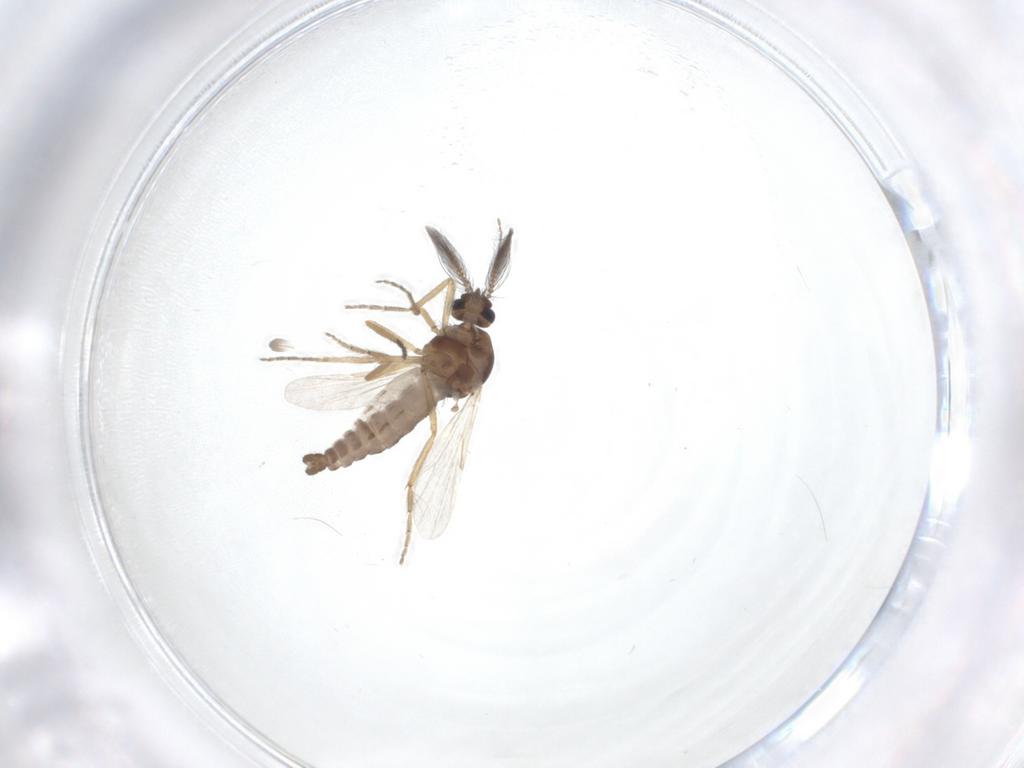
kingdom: Animalia
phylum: Arthropoda
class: Insecta
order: Diptera
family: Ceratopogonidae
